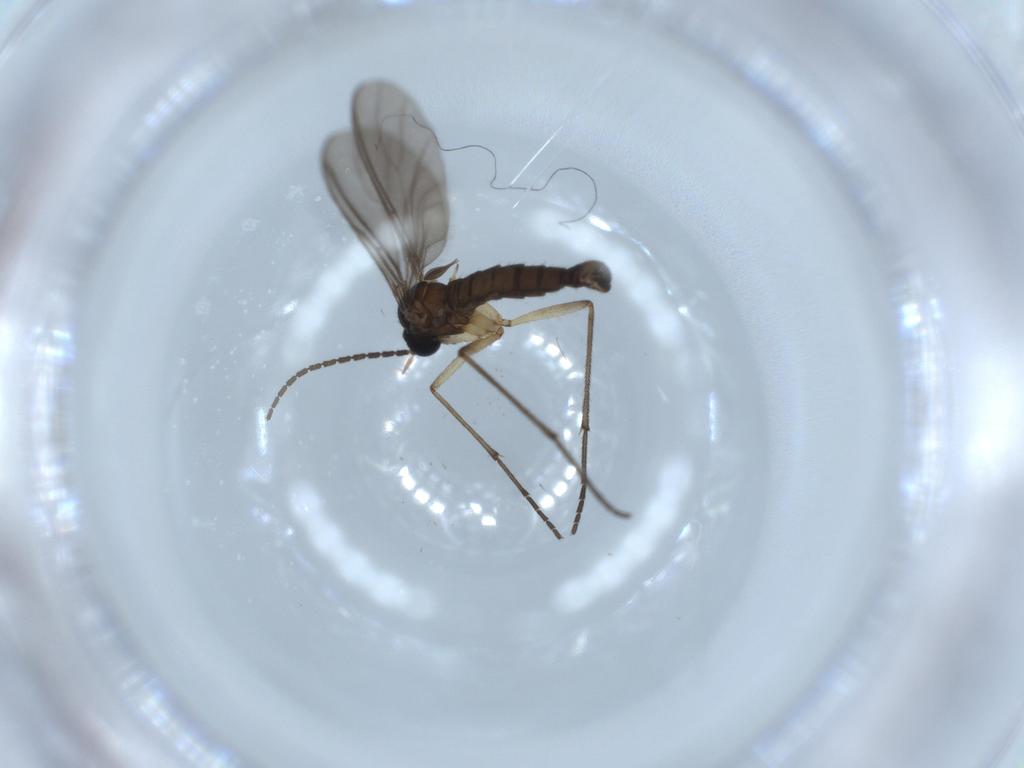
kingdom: Animalia
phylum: Arthropoda
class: Insecta
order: Diptera
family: Sciaridae
